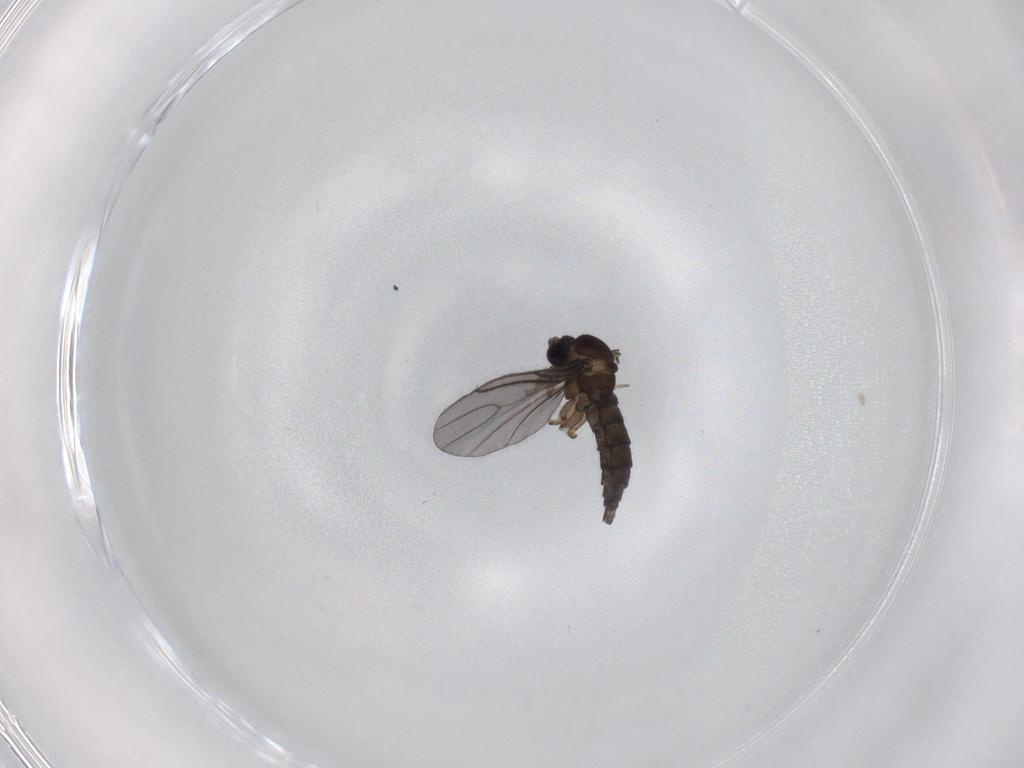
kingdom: Animalia
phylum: Arthropoda
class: Insecta
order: Diptera
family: Sciaridae
